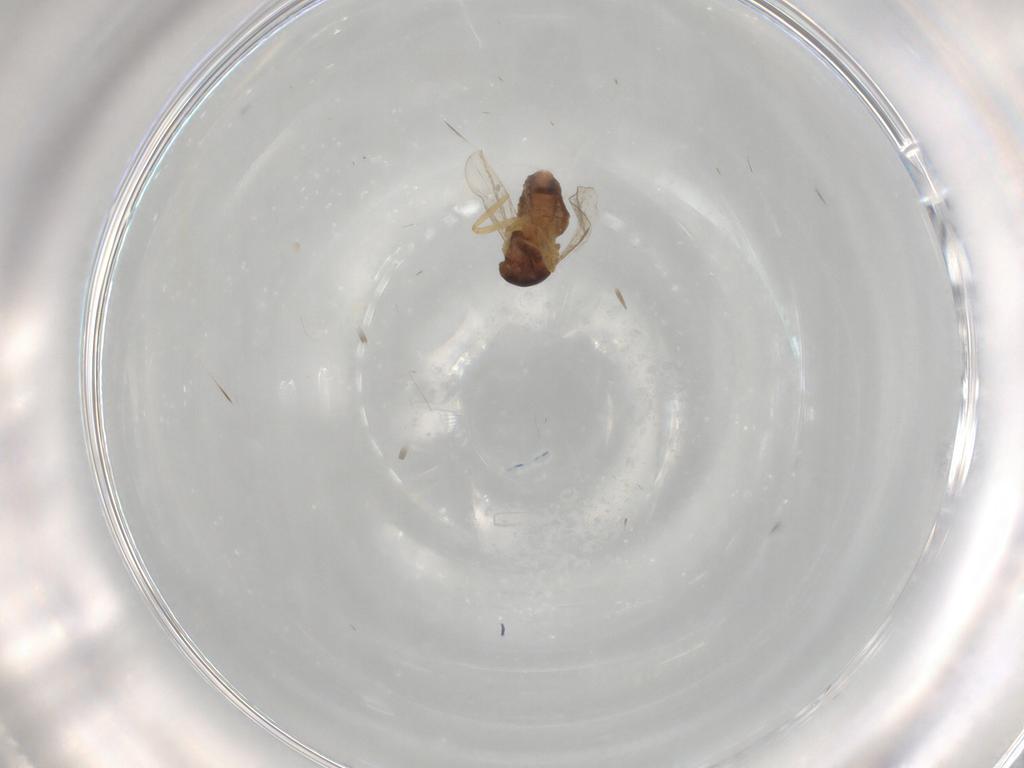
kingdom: Animalia
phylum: Arthropoda
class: Insecta
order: Diptera
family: Ceratopogonidae
